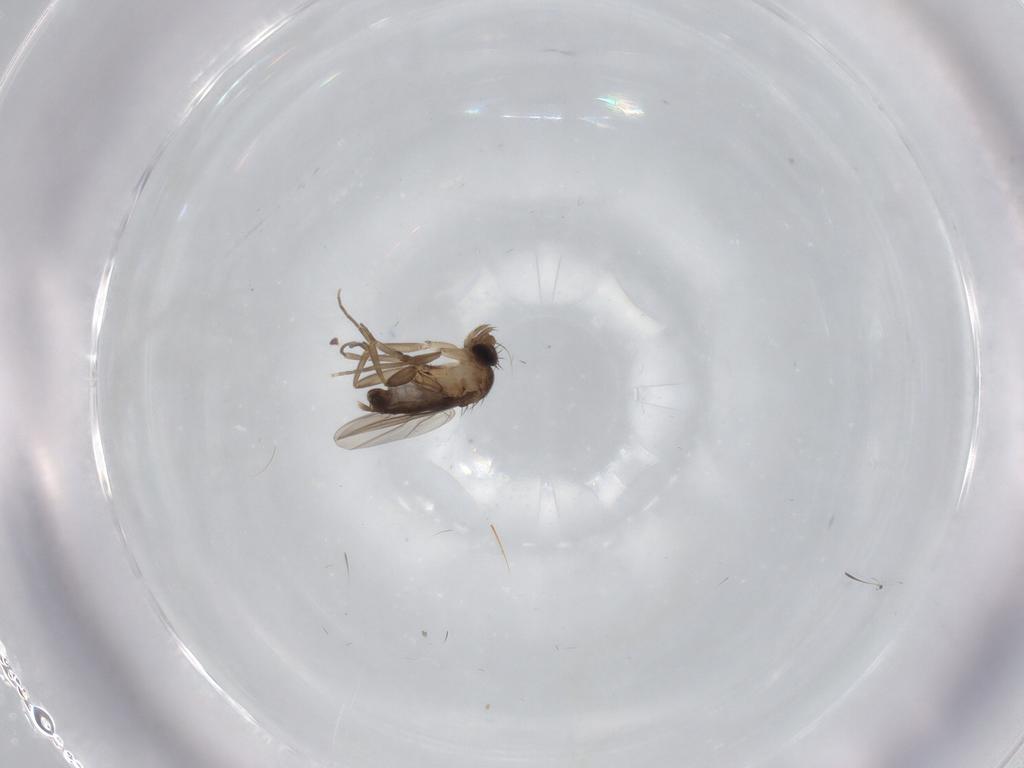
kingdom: Animalia
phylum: Arthropoda
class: Insecta
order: Diptera
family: Phoridae
